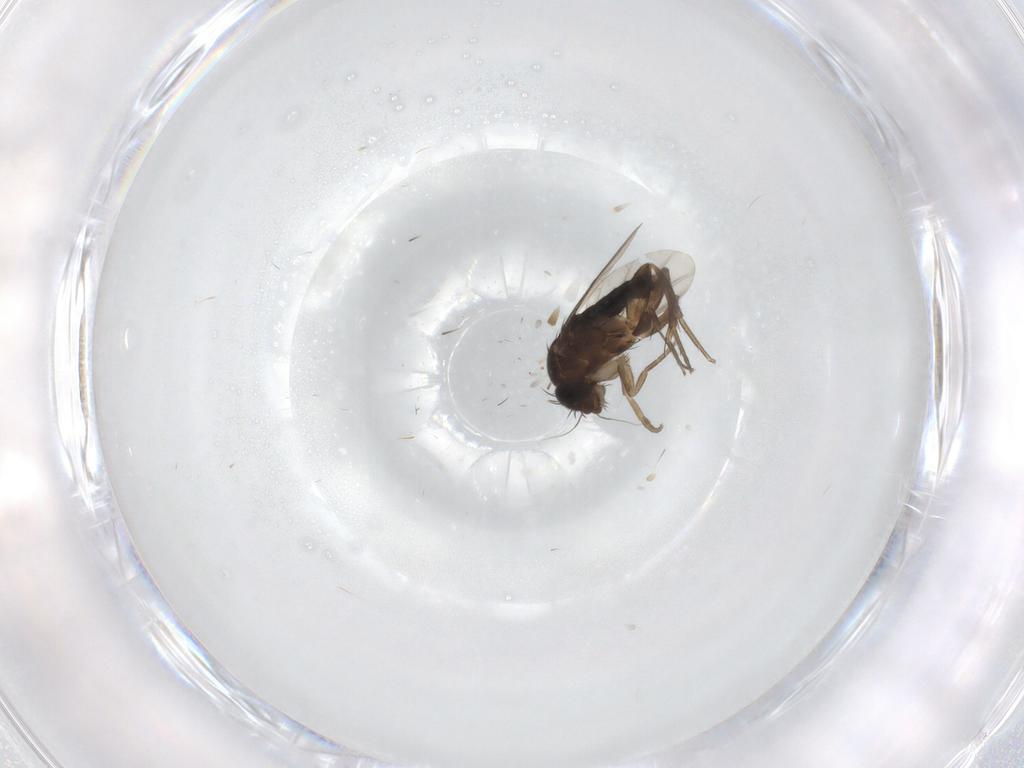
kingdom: Animalia
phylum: Arthropoda
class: Insecta
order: Diptera
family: Phoridae
